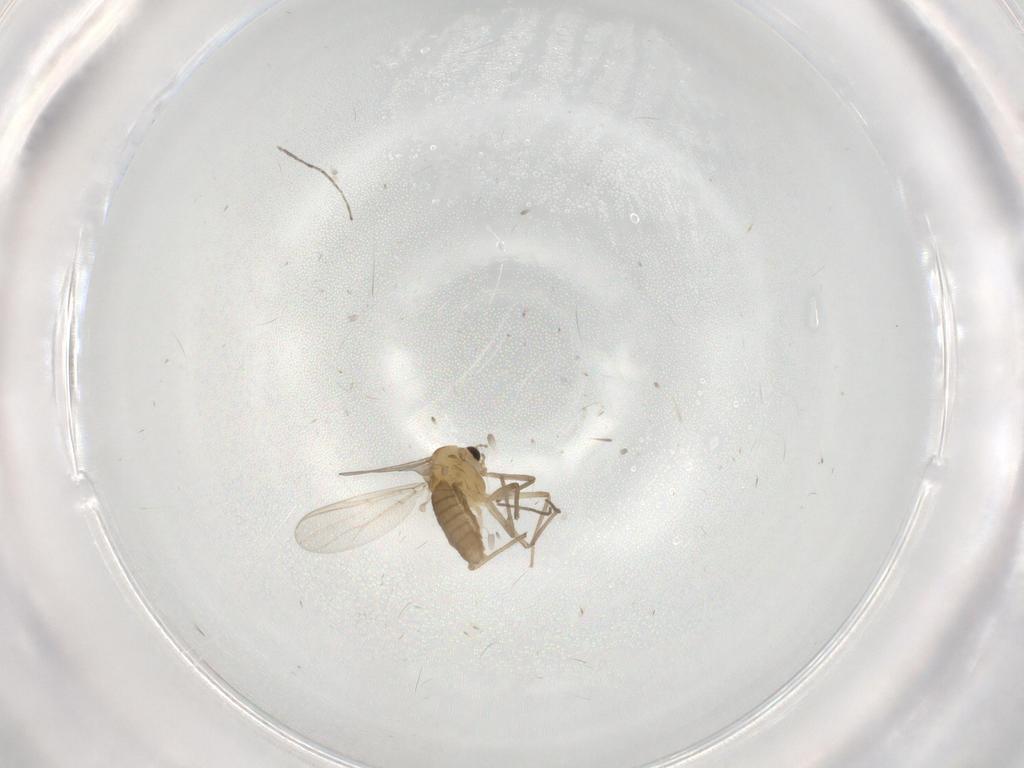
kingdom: Animalia
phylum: Arthropoda
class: Insecta
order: Diptera
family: Chironomidae
